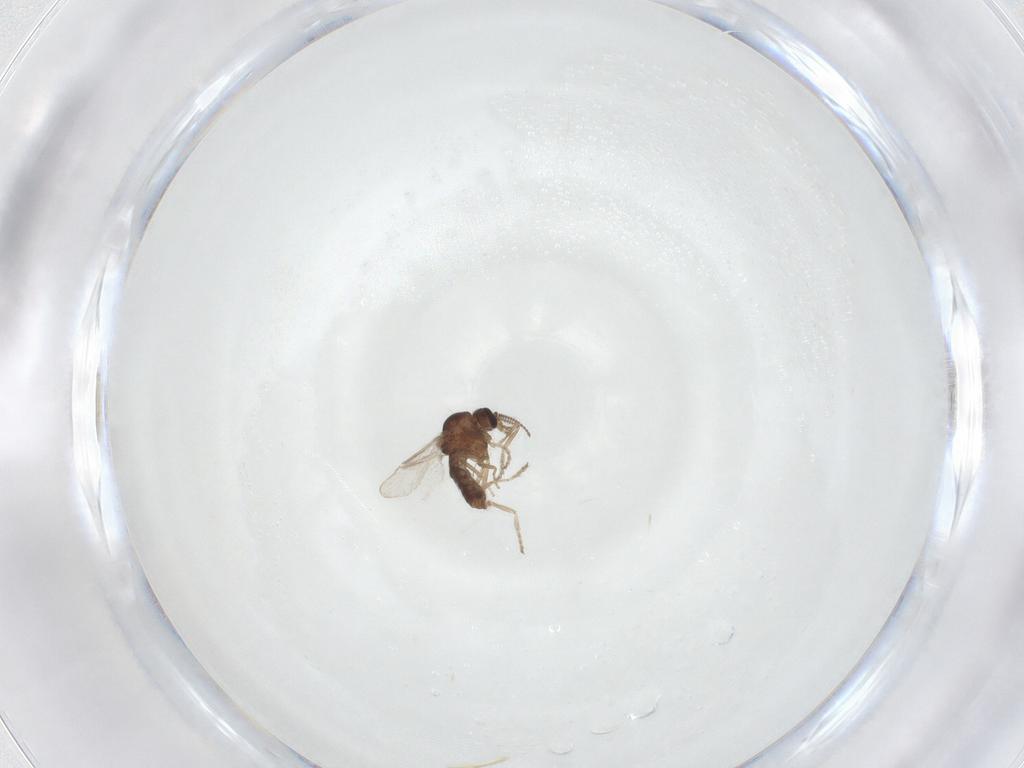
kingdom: Animalia
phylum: Arthropoda
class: Insecta
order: Diptera
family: Ceratopogonidae
